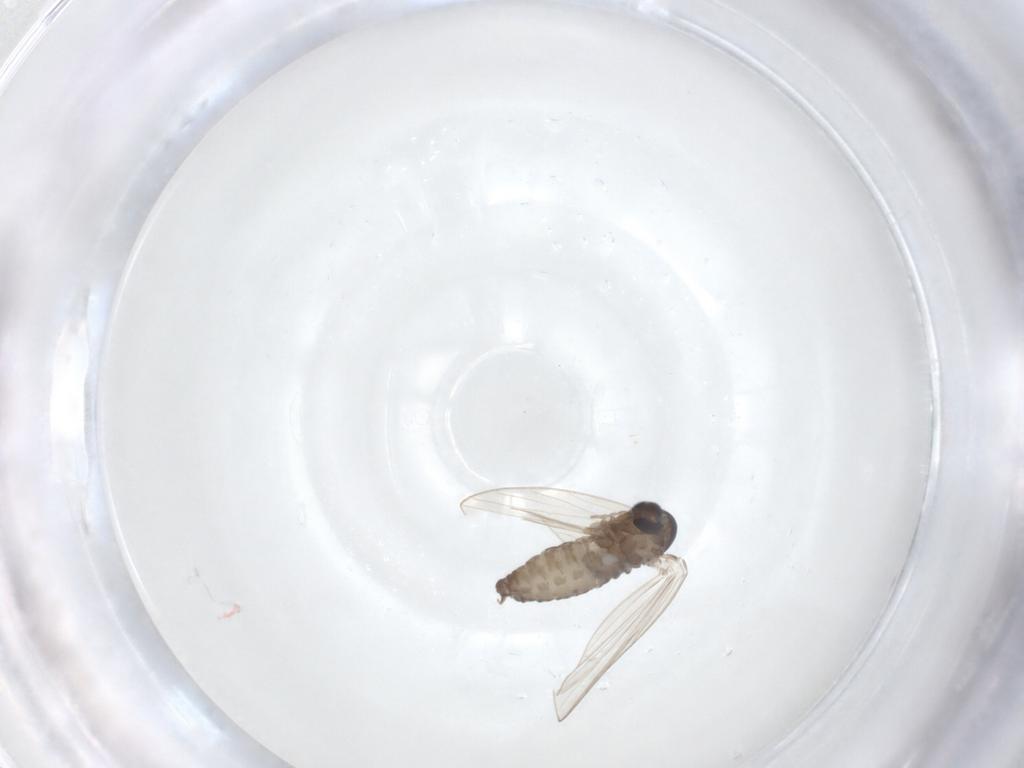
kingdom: Animalia
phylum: Arthropoda
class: Insecta
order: Diptera
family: Psychodidae
